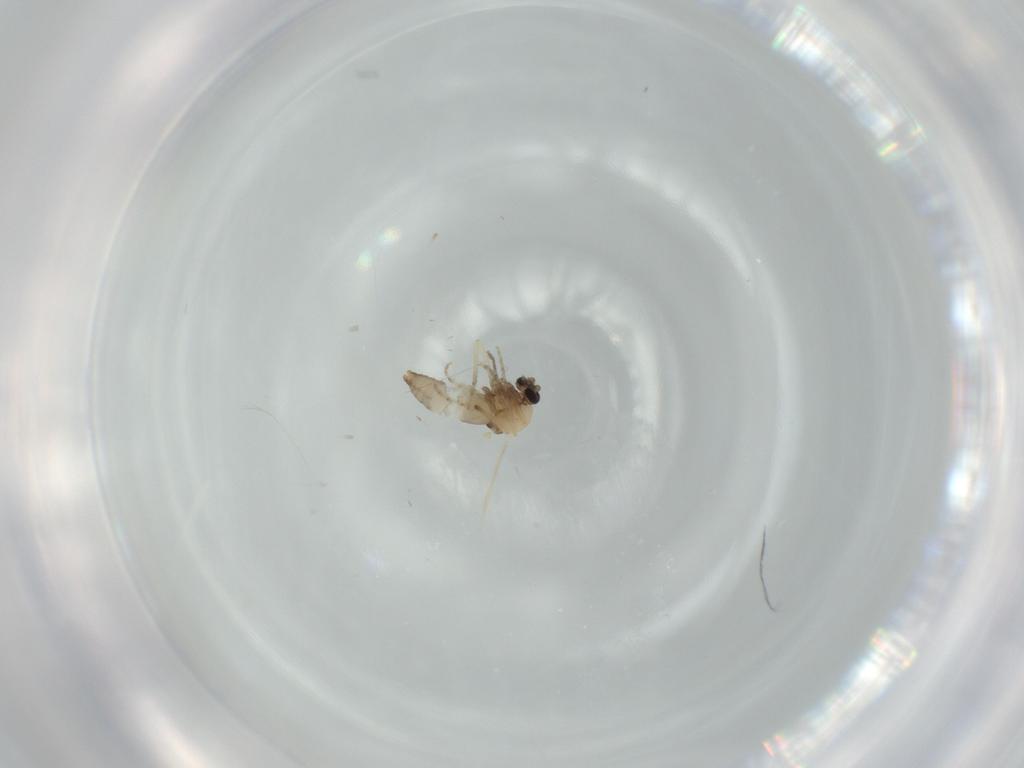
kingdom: Animalia
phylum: Arthropoda
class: Insecta
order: Diptera
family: Ceratopogonidae
